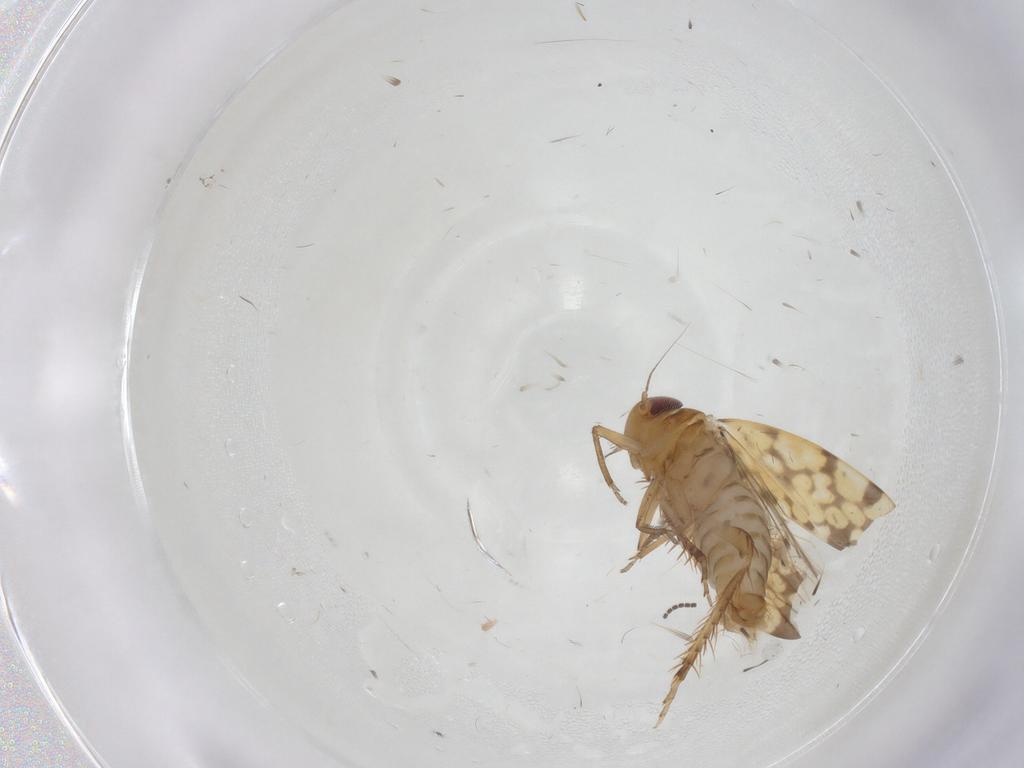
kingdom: Animalia
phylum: Arthropoda
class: Insecta
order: Hemiptera
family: Cicadellidae
